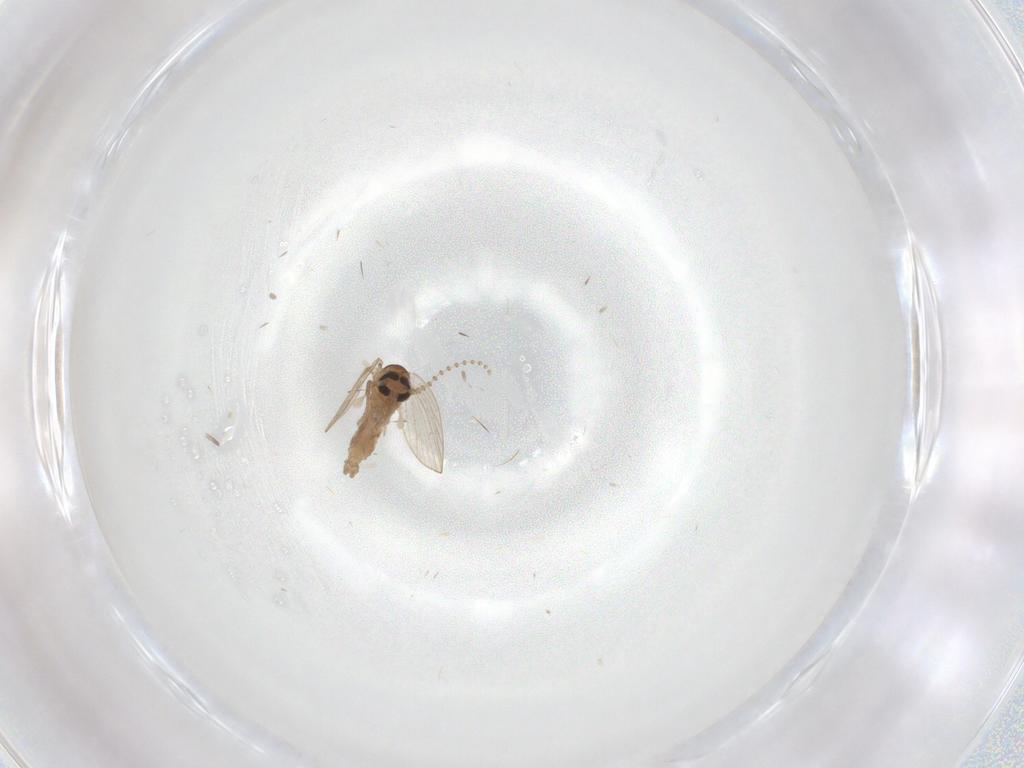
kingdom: Animalia
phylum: Arthropoda
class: Insecta
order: Diptera
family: Psychodidae
